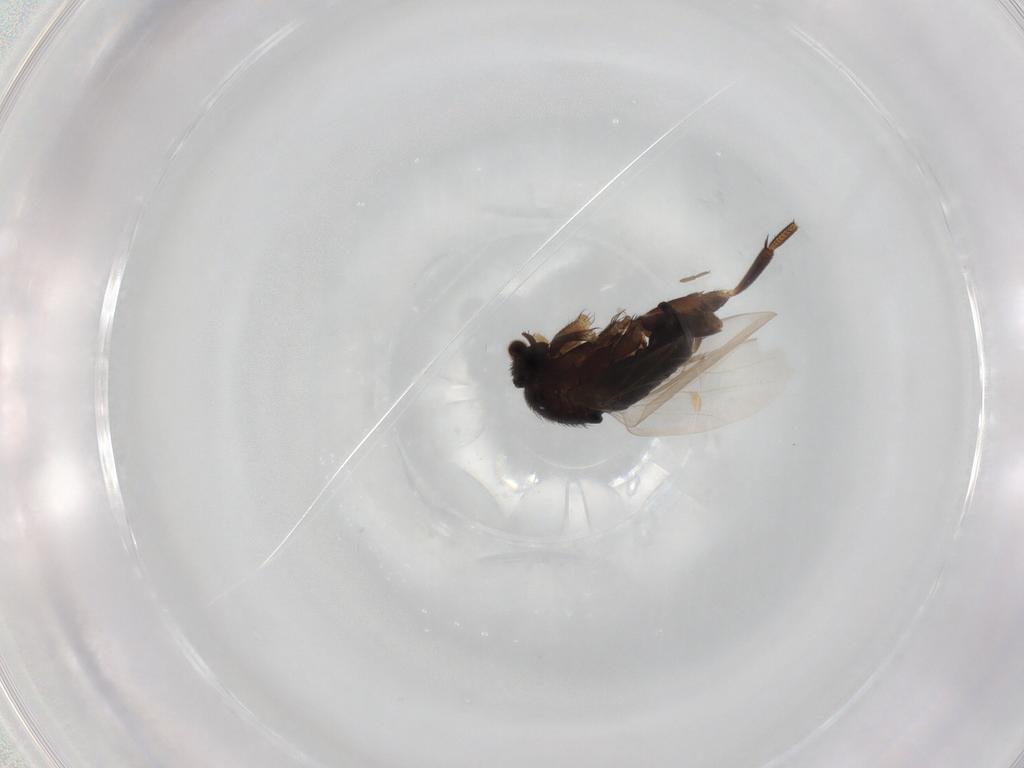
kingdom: Animalia
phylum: Arthropoda
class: Insecta
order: Diptera
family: Phoridae
